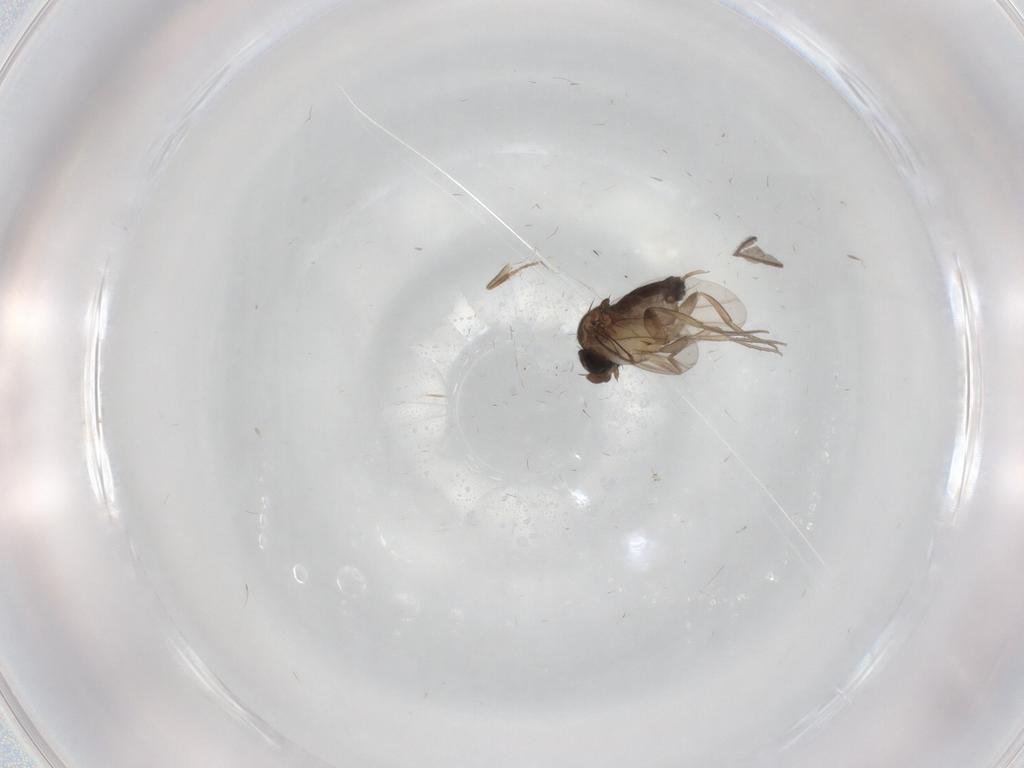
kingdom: Animalia
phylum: Arthropoda
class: Insecta
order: Diptera
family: Phoridae
